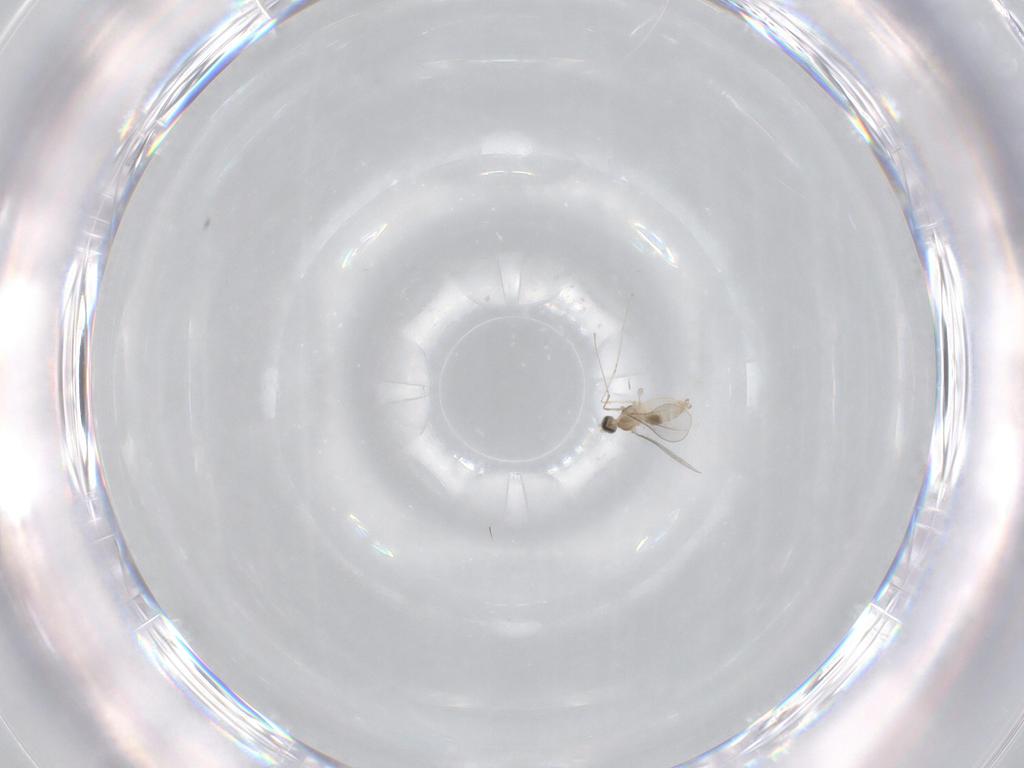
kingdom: Animalia
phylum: Arthropoda
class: Insecta
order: Diptera
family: Cecidomyiidae
